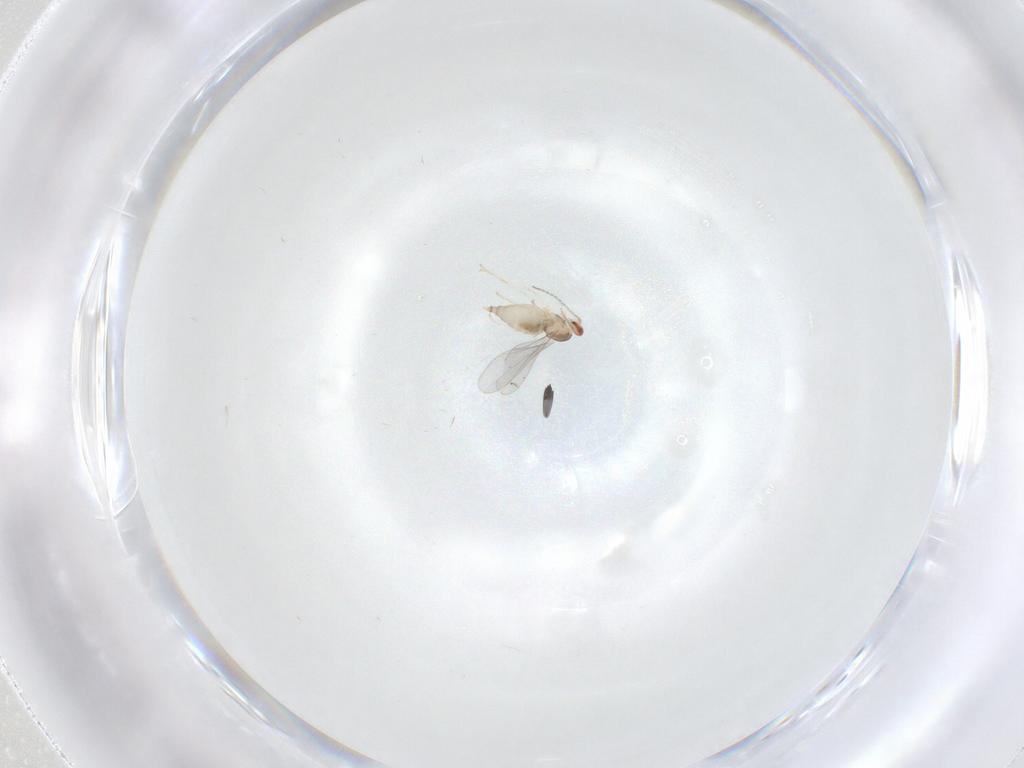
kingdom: Animalia
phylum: Arthropoda
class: Insecta
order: Diptera
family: Cecidomyiidae
